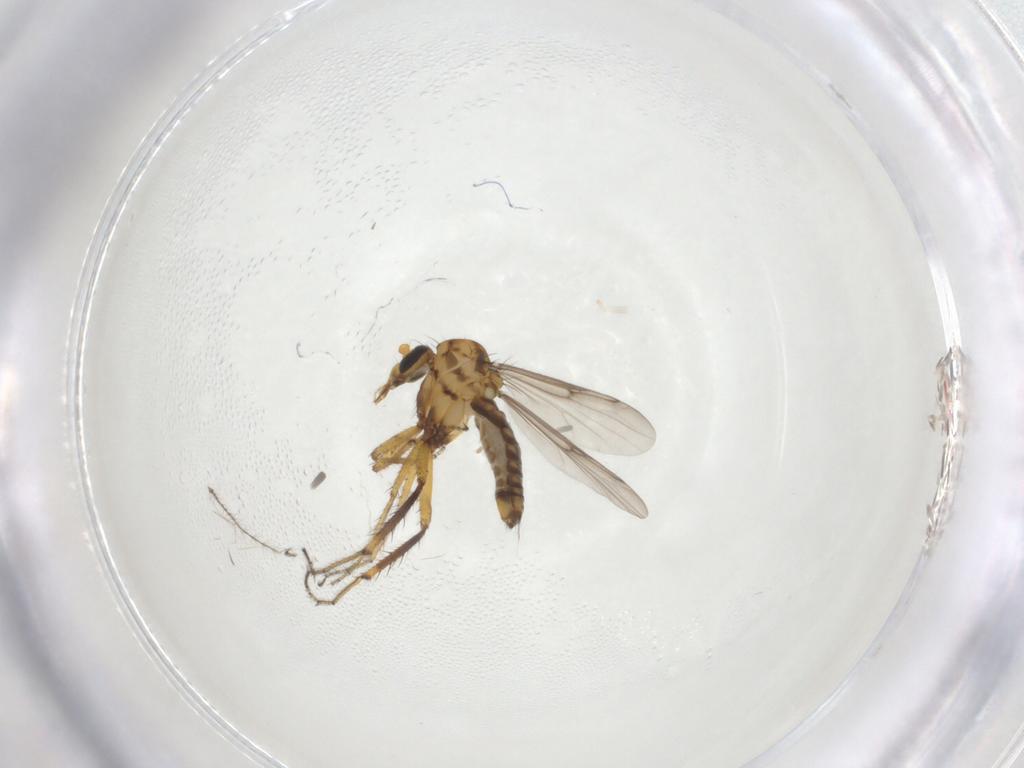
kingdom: Animalia
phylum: Arthropoda
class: Insecta
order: Diptera
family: Ceratopogonidae
